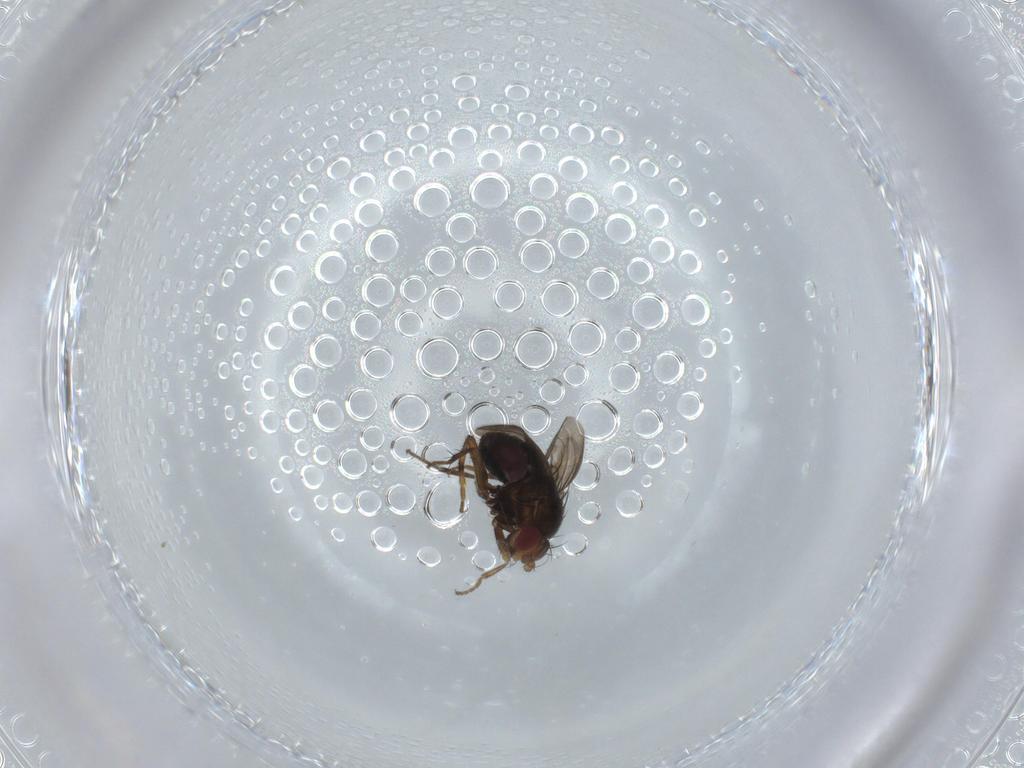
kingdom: Animalia
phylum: Arthropoda
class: Insecta
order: Diptera
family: Sphaeroceridae
